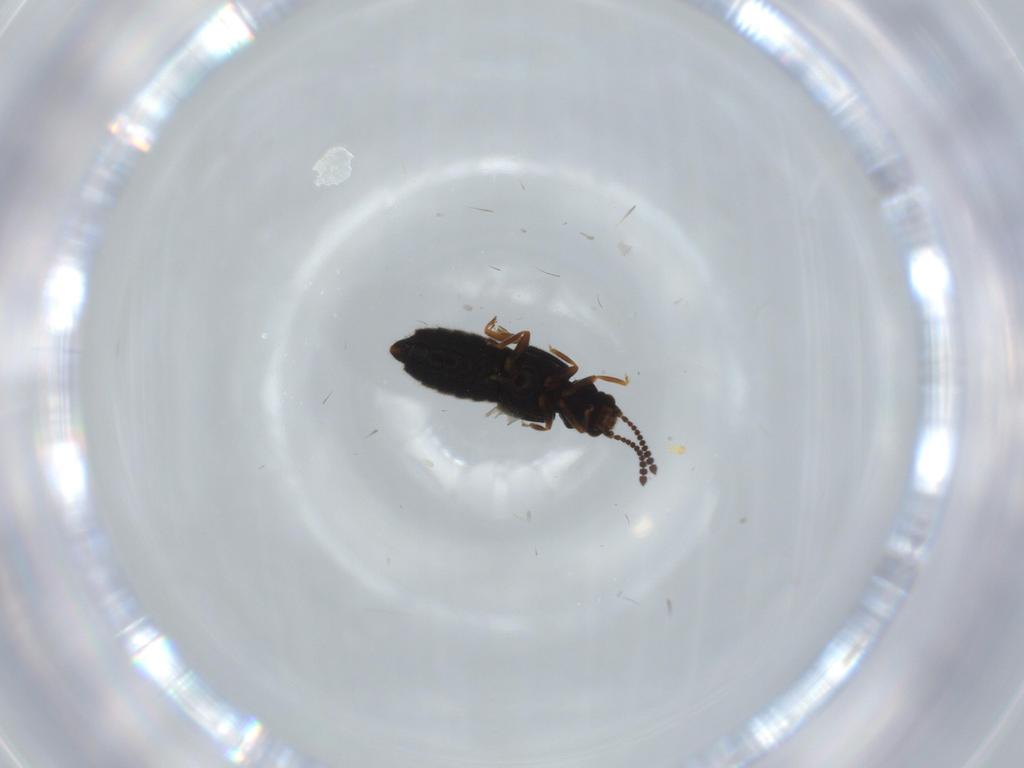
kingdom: Animalia
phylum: Arthropoda
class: Insecta
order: Coleoptera
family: Staphylinidae
